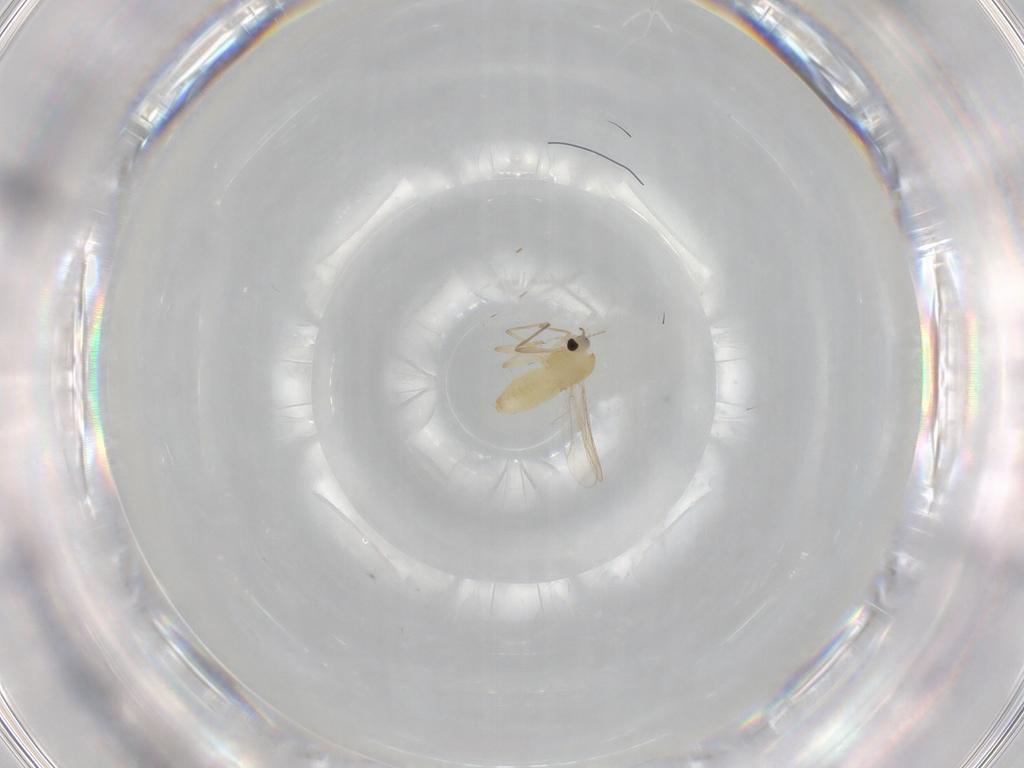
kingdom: Animalia
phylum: Arthropoda
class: Insecta
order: Diptera
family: Chironomidae
